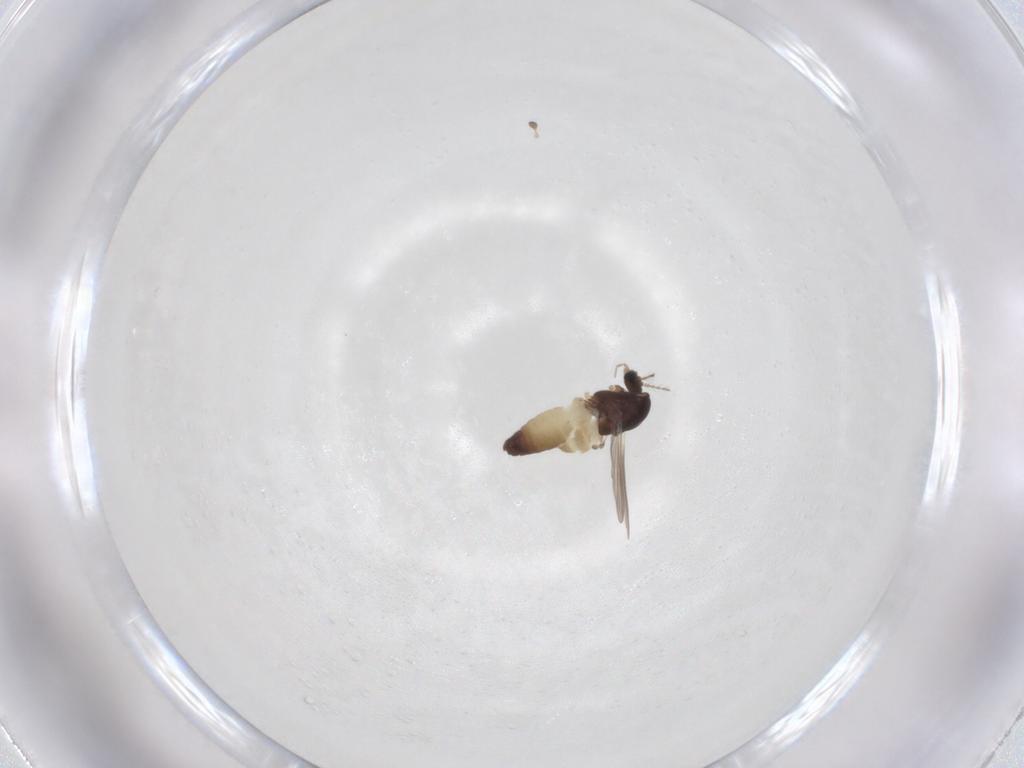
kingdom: Animalia
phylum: Arthropoda
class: Insecta
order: Diptera
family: Chironomidae
